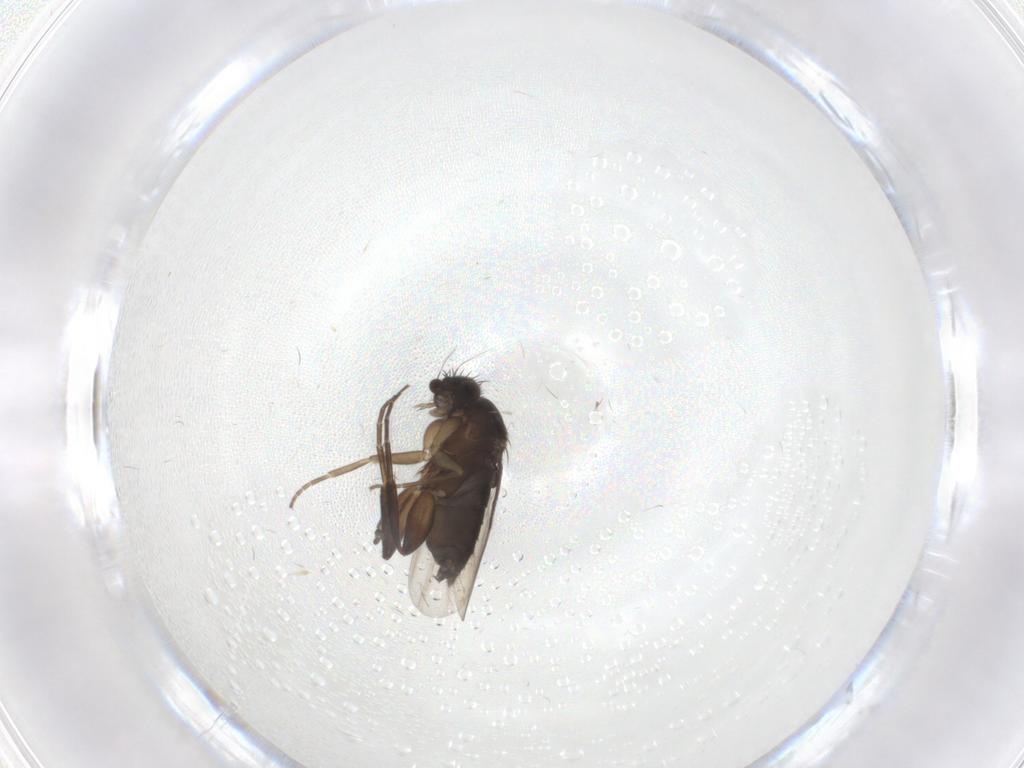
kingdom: Animalia
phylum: Arthropoda
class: Insecta
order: Diptera
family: Phoridae
